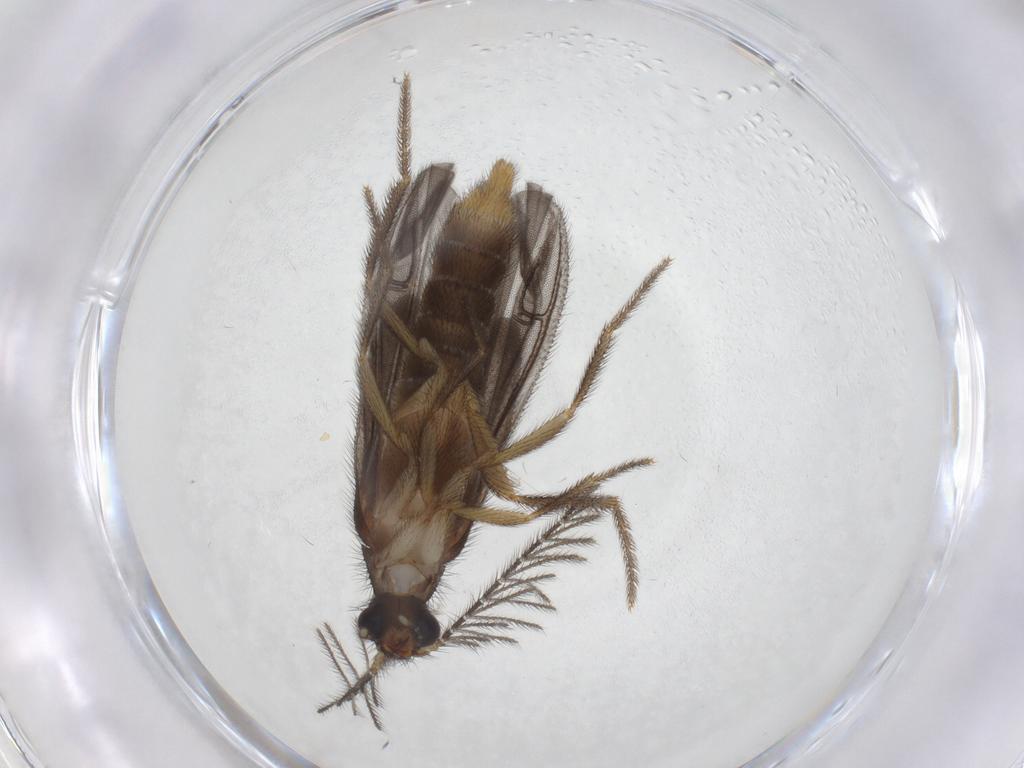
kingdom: Animalia
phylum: Arthropoda
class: Insecta
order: Coleoptera
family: Phengodidae
